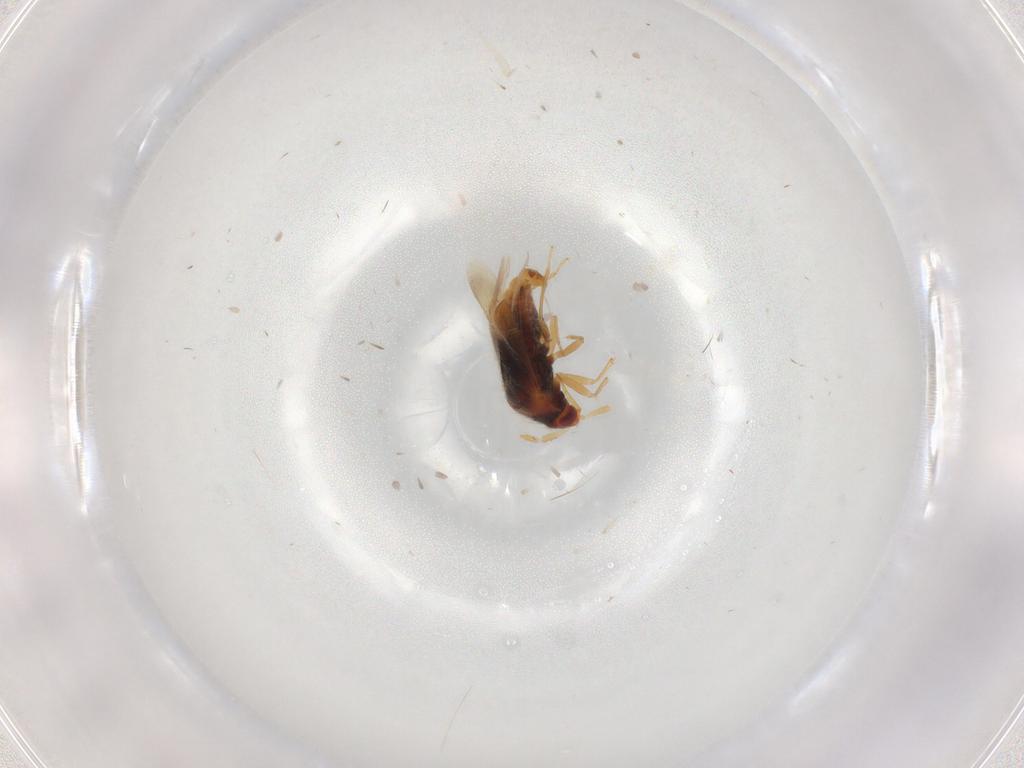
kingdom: Animalia
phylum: Arthropoda
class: Insecta
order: Hemiptera
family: Anthocoridae
